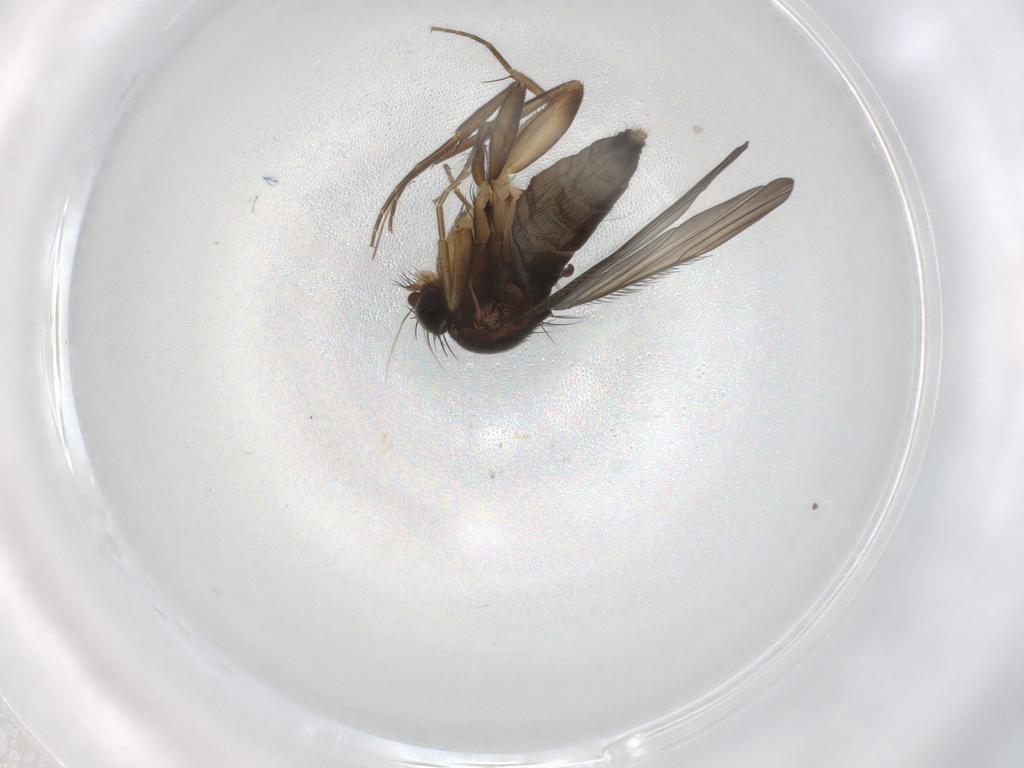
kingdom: Animalia
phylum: Arthropoda
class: Insecta
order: Diptera
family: Phoridae
